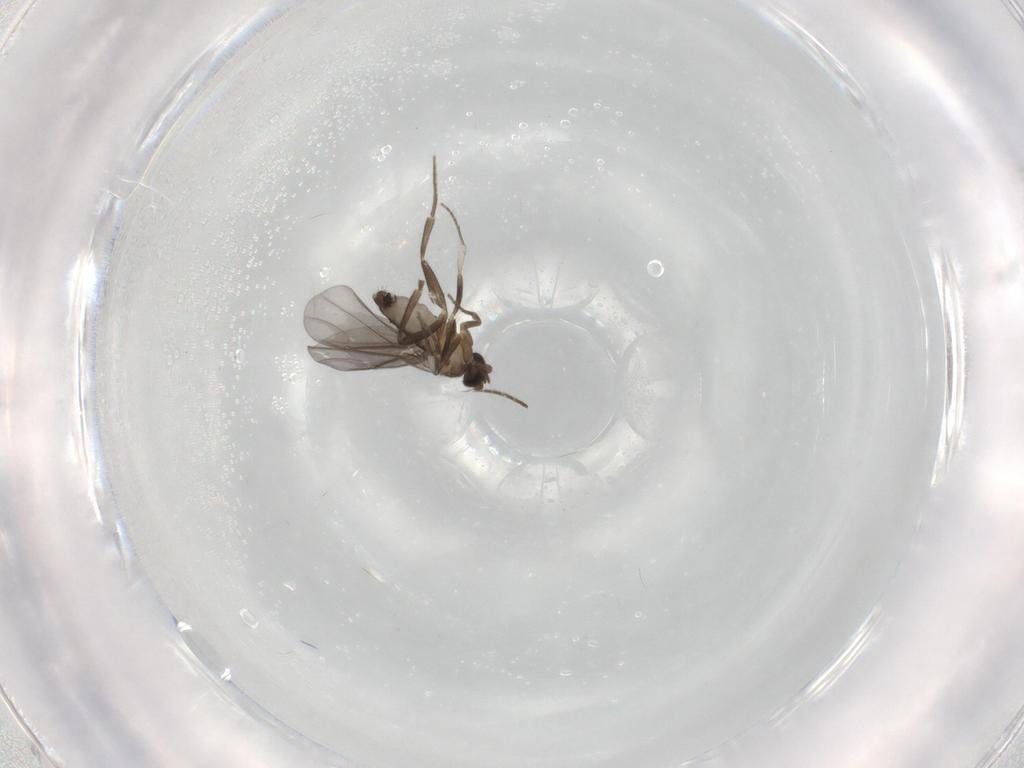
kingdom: Animalia
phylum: Arthropoda
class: Insecta
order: Diptera
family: Phoridae
